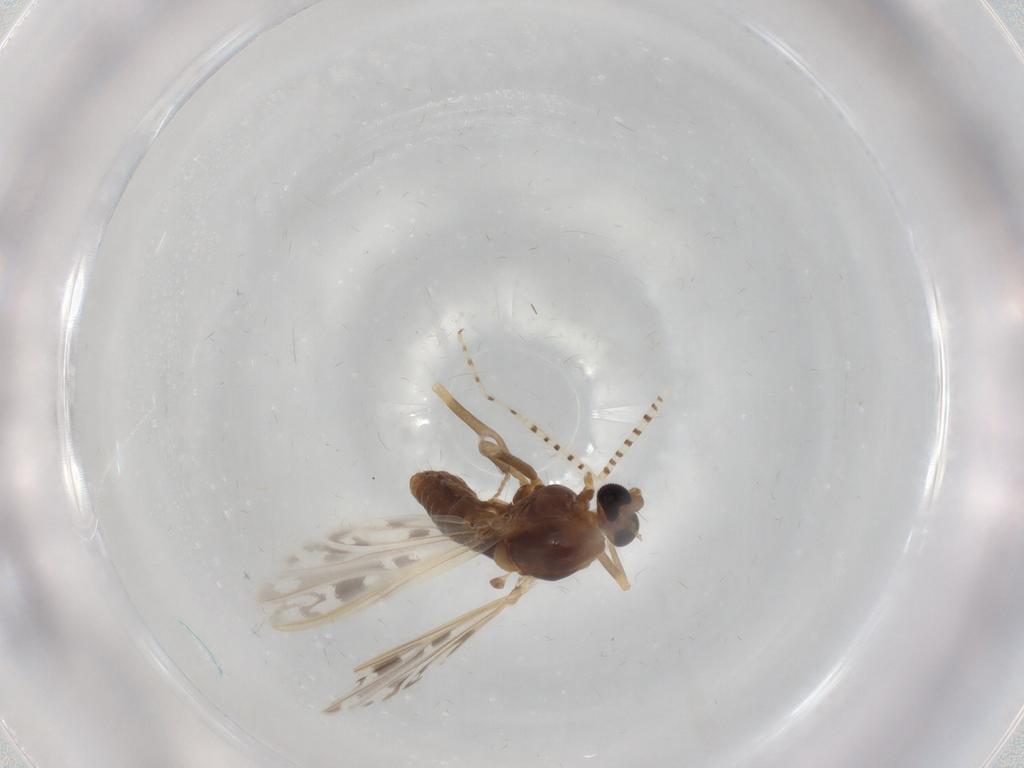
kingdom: Animalia
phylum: Arthropoda
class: Insecta
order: Diptera
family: Chironomidae
